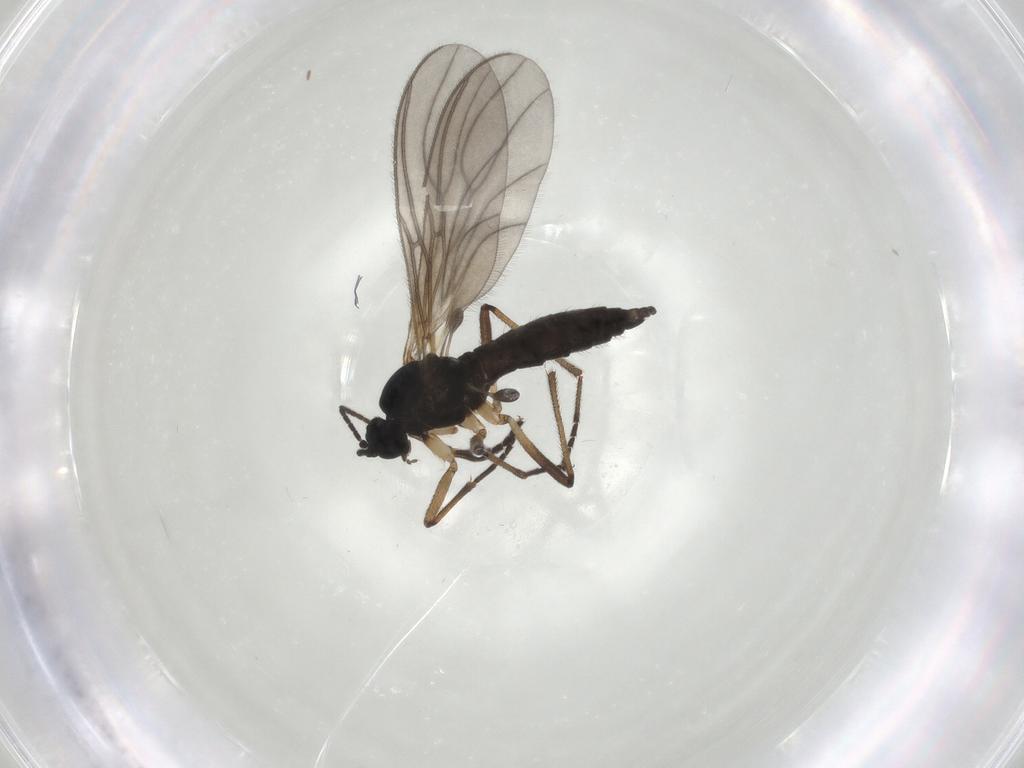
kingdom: Animalia
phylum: Arthropoda
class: Insecta
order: Diptera
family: Sciaridae
